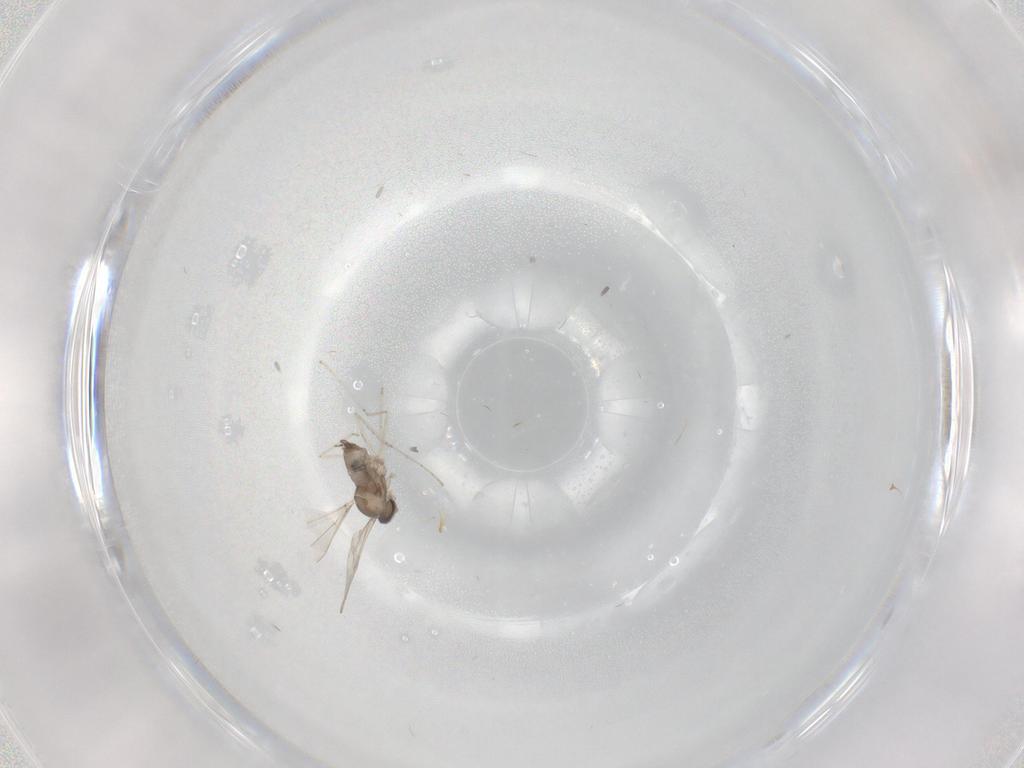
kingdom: Animalia
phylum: Arthropoda
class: Insecta
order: Diptera
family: Cecidomyiidae
